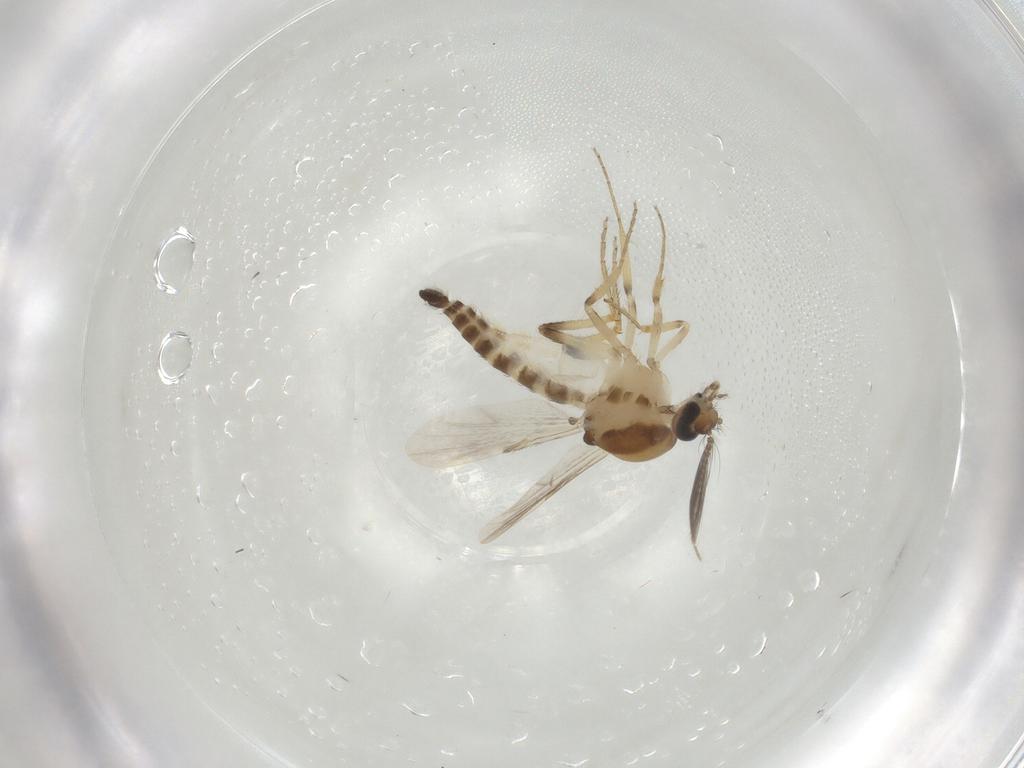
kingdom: Animalia
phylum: Arthropoda
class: Insecta
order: Diptera
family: Ceratopogonidae
